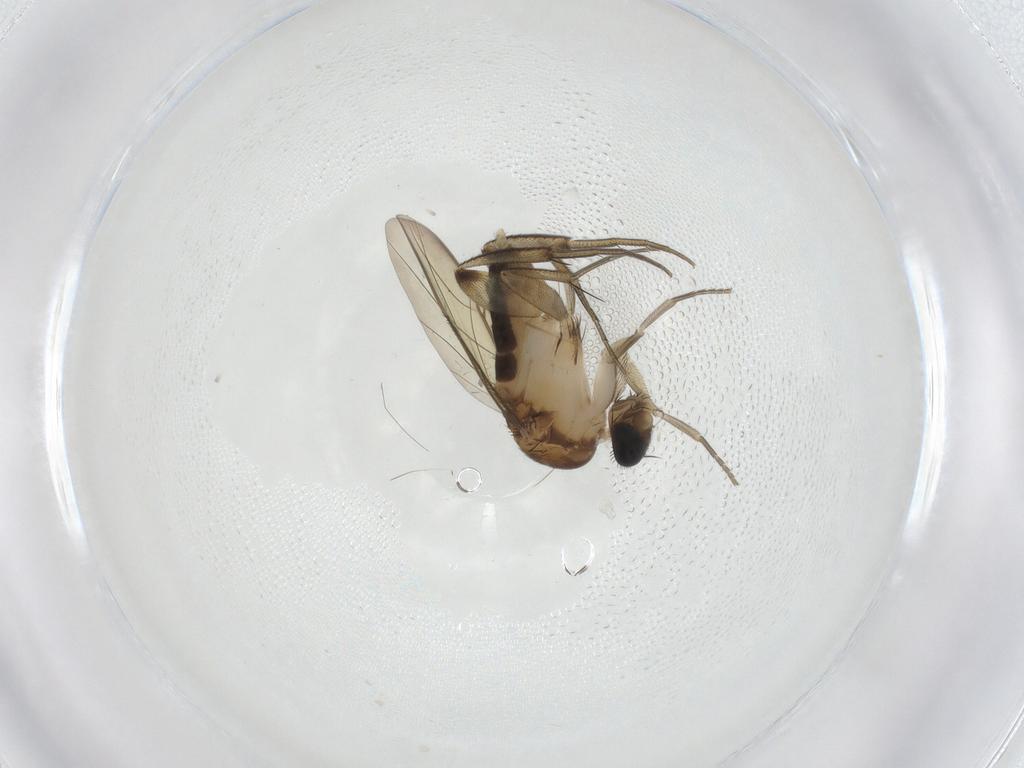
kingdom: Animalia
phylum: Arthropoda
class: Insecta
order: Diptera
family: Phoridae
